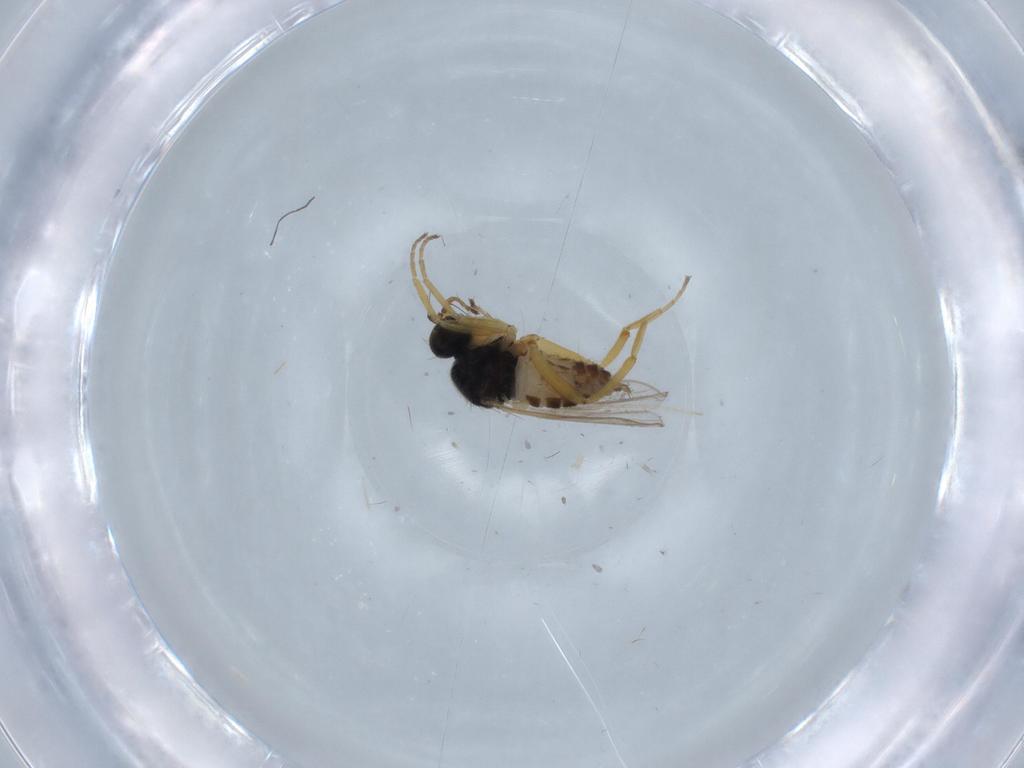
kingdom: Animalia
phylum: Arthropoda
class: Insecta
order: Diptera
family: Hybotidae
